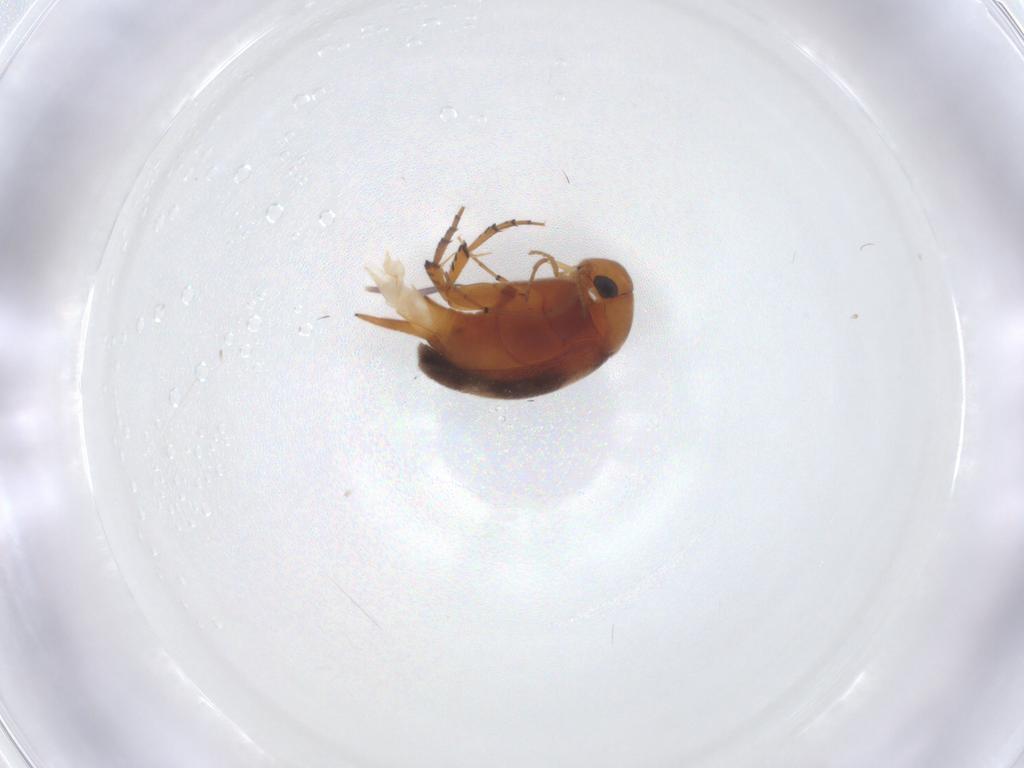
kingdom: Animalia
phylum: Arthropoda
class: Insecta
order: Coleoptera
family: Mordellidae
